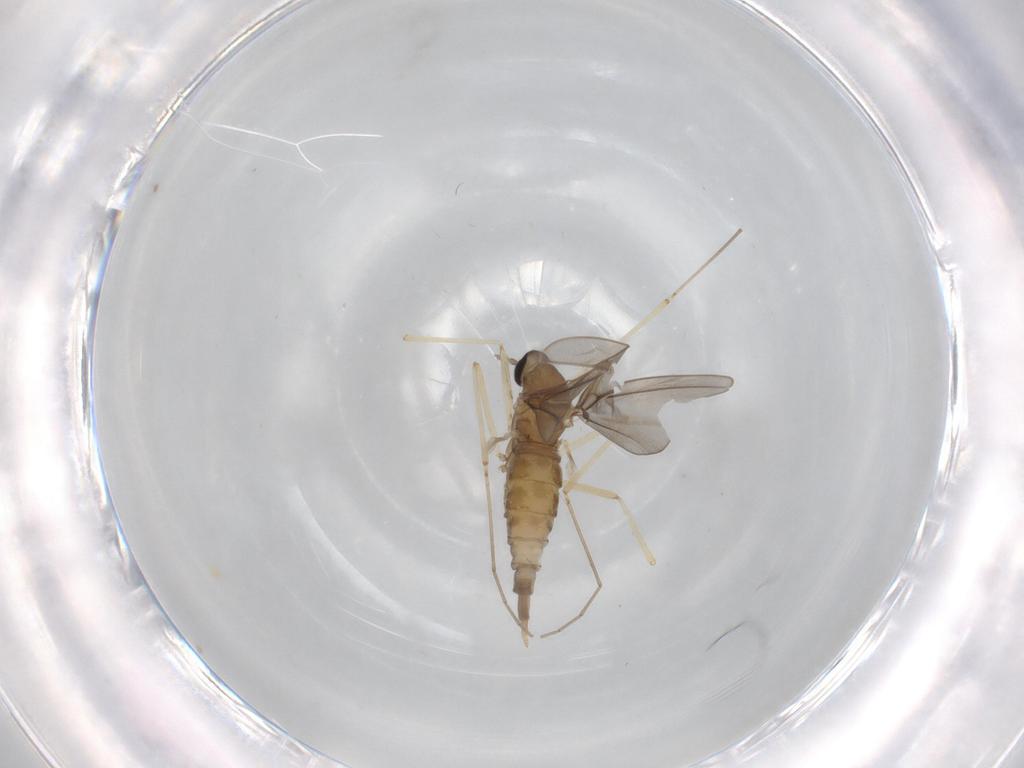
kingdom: Animalia
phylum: Arthropoda
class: Insecta
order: Diptera
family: Cecidomyiidae
